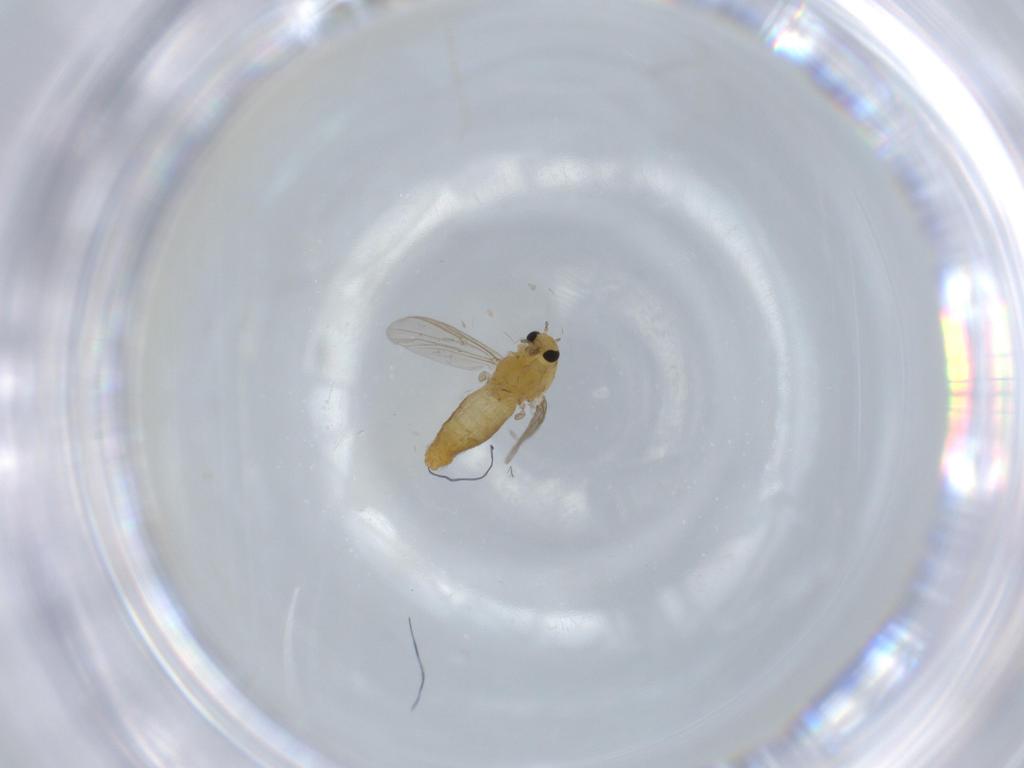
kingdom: Animalia
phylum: Arthropoda
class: Insecta
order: Diptera
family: Chironomidae
